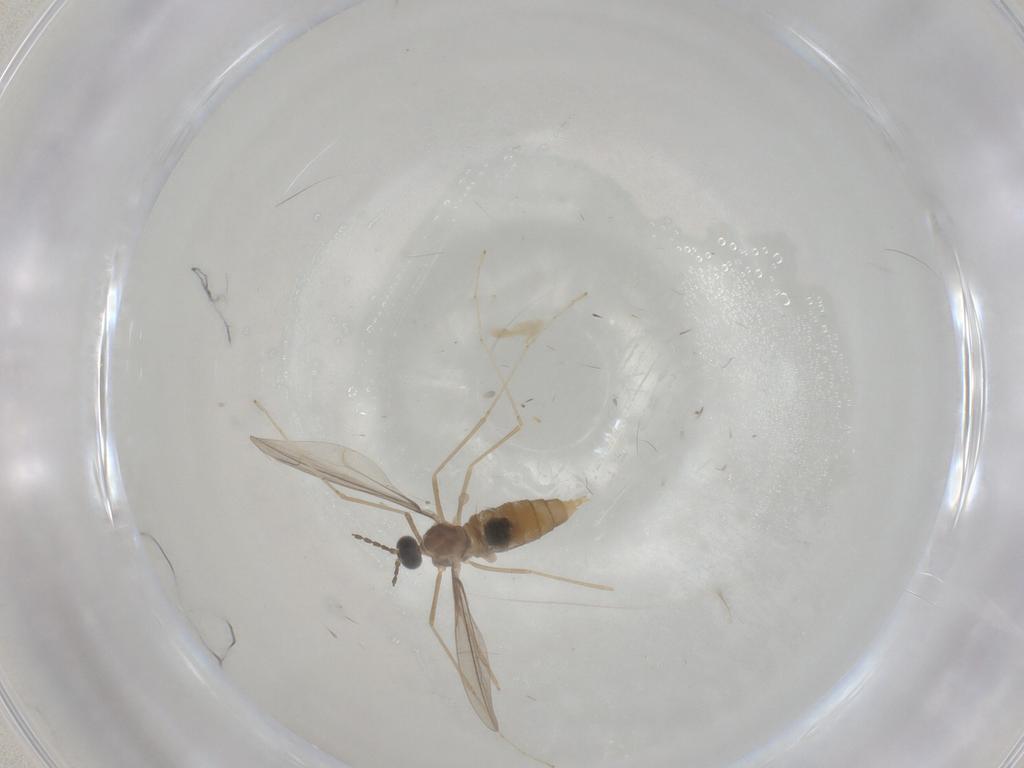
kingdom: Animalia
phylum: Arthropoda
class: Insecta
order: Diptera
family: Cecidomyiidae
